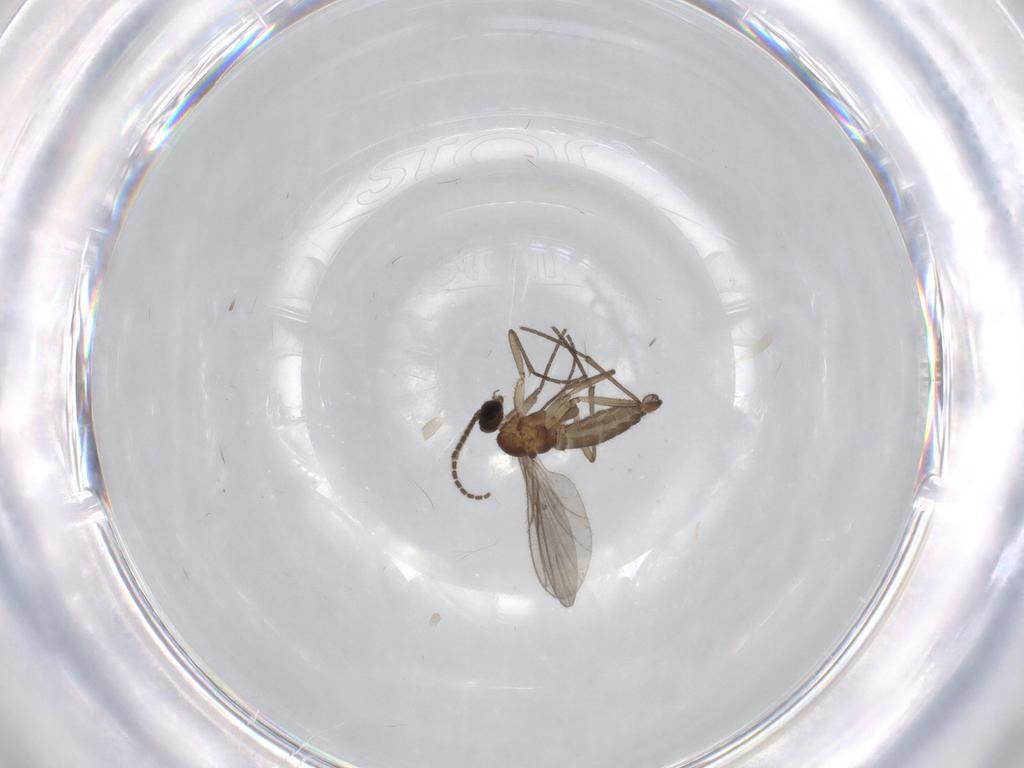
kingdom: Animalia
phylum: Arthropoda
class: Insecta
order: Diptera
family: Sciaridae
